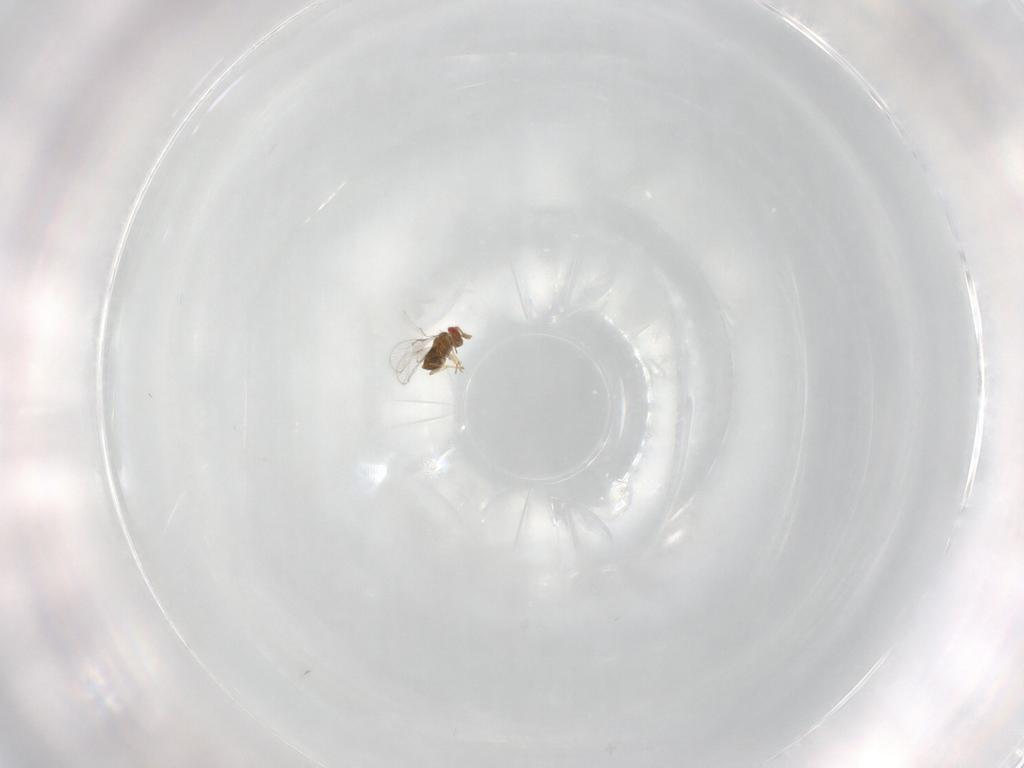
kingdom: Animalia
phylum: Arthropoda
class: Insecta
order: Hymenoptera
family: Trichogrammatidae
